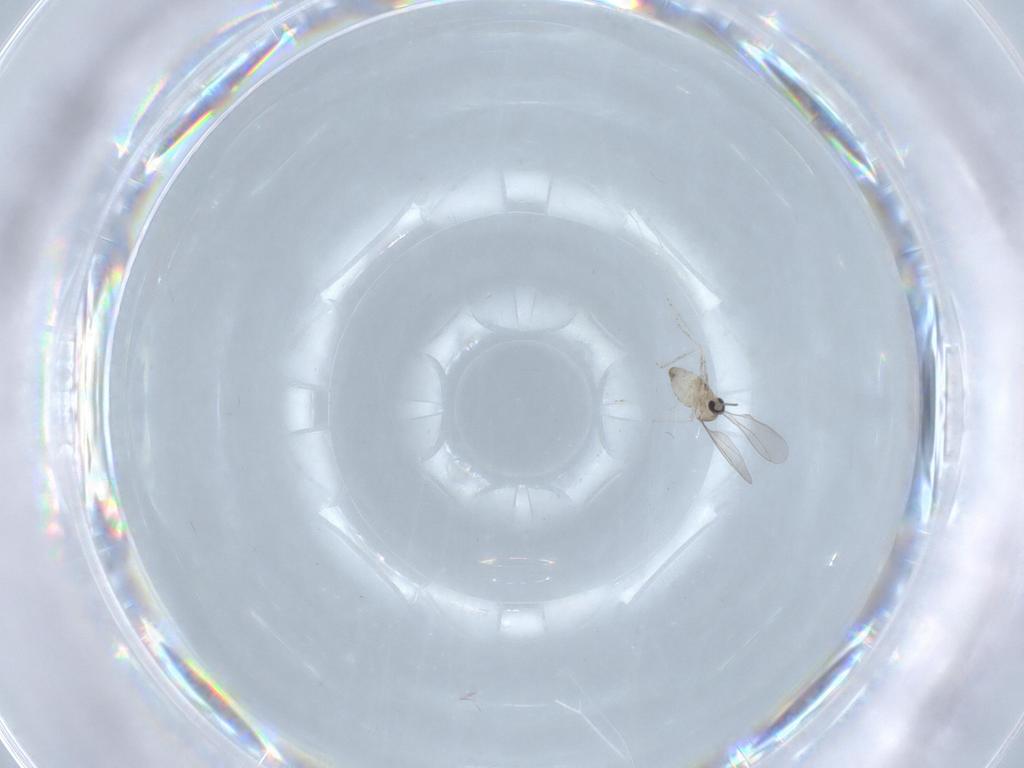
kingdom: Animalia
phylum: Arthropoda
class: Insecta
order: Diptera
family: Cecidomyiidae
